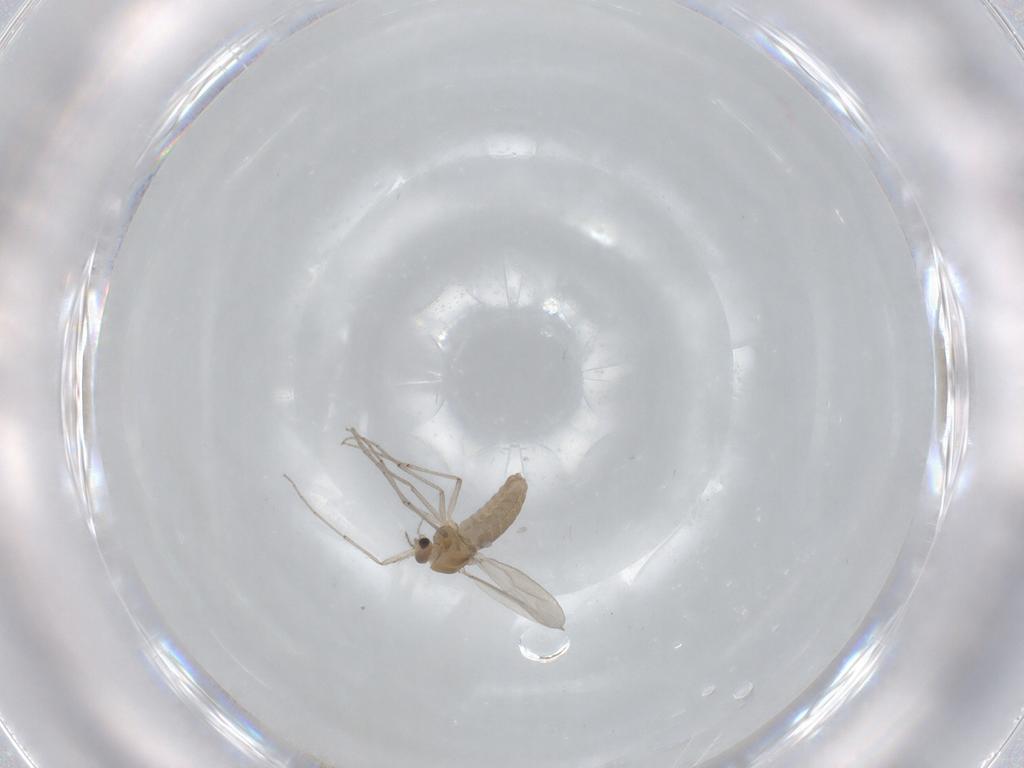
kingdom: Animalia
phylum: Arthropoda
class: Insecta
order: Diptera
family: Chironomidae
